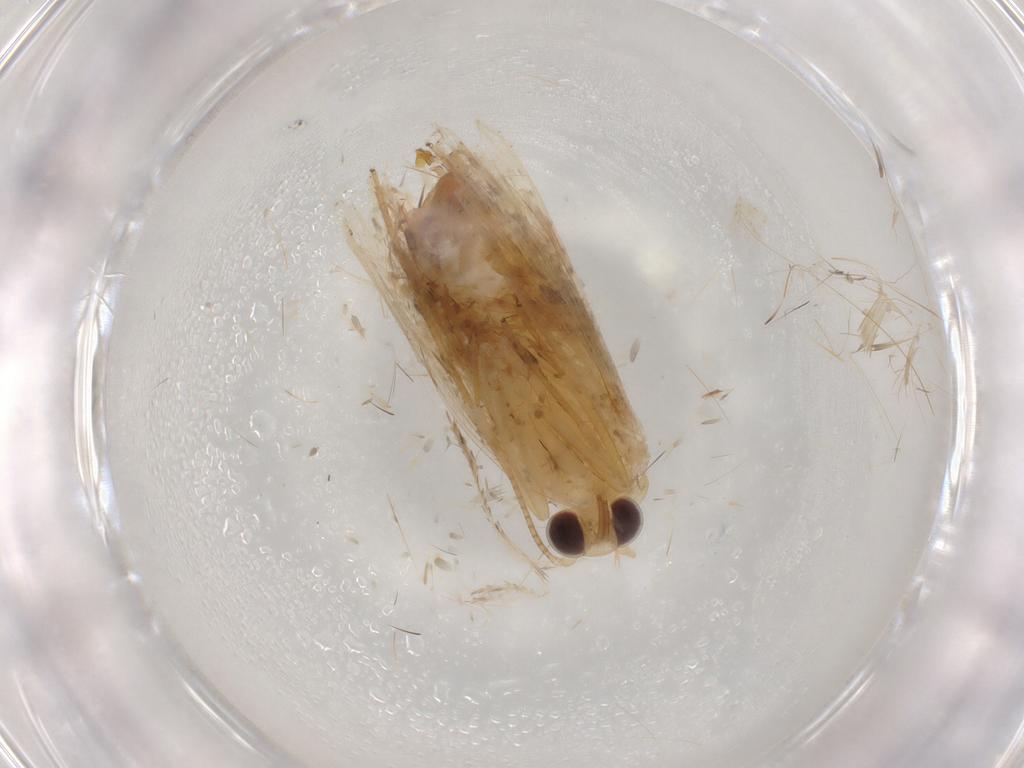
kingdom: Animalia
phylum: Arthropoda
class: Insecta
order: Lepidoptera
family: Erebidae
